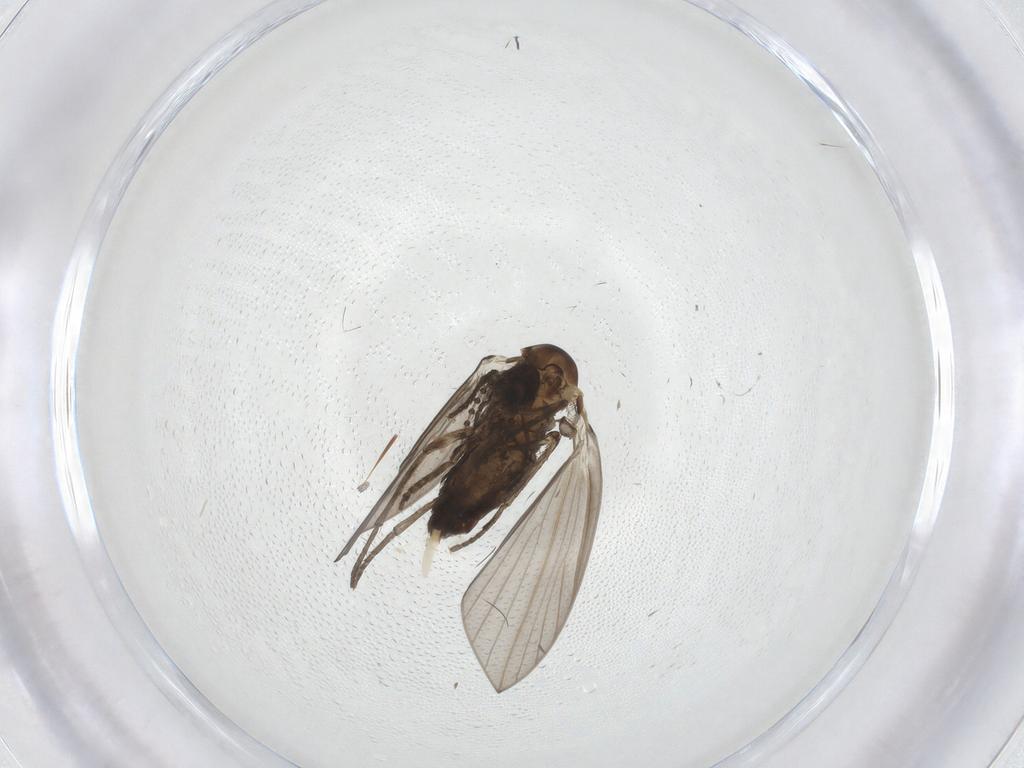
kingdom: Animalia
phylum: Arthropoda
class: Insecta
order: Diptera
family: Psychodidae
